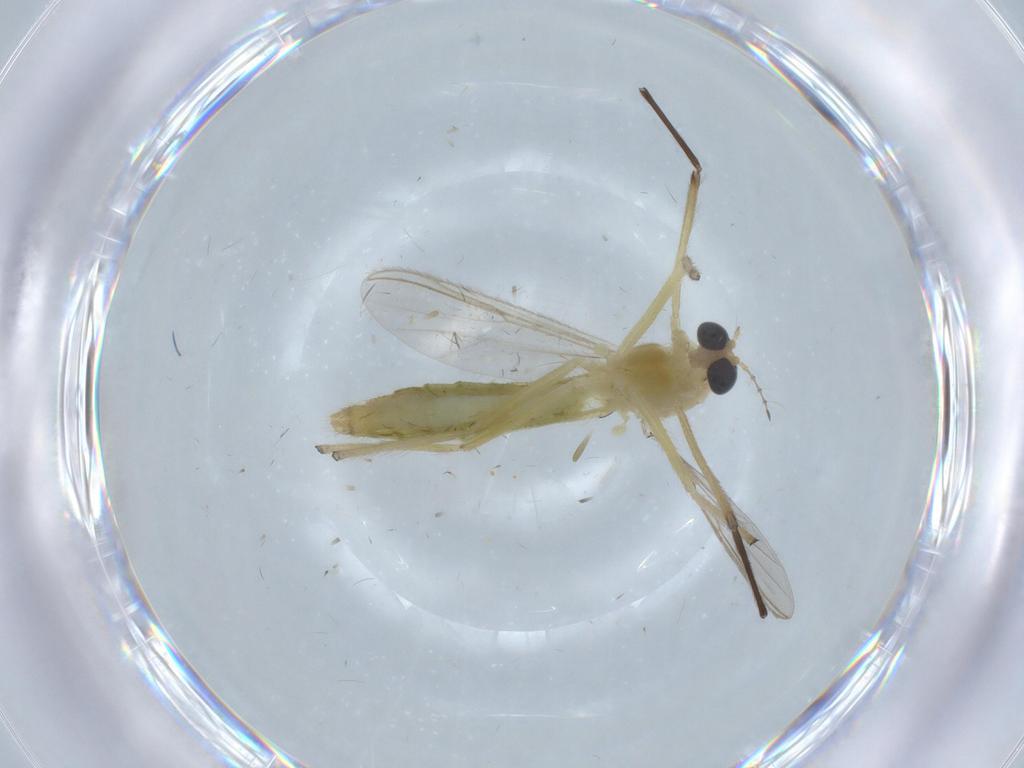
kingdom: Animalia
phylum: Arthropoda
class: Insecta
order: Diptera
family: Chironomidae
